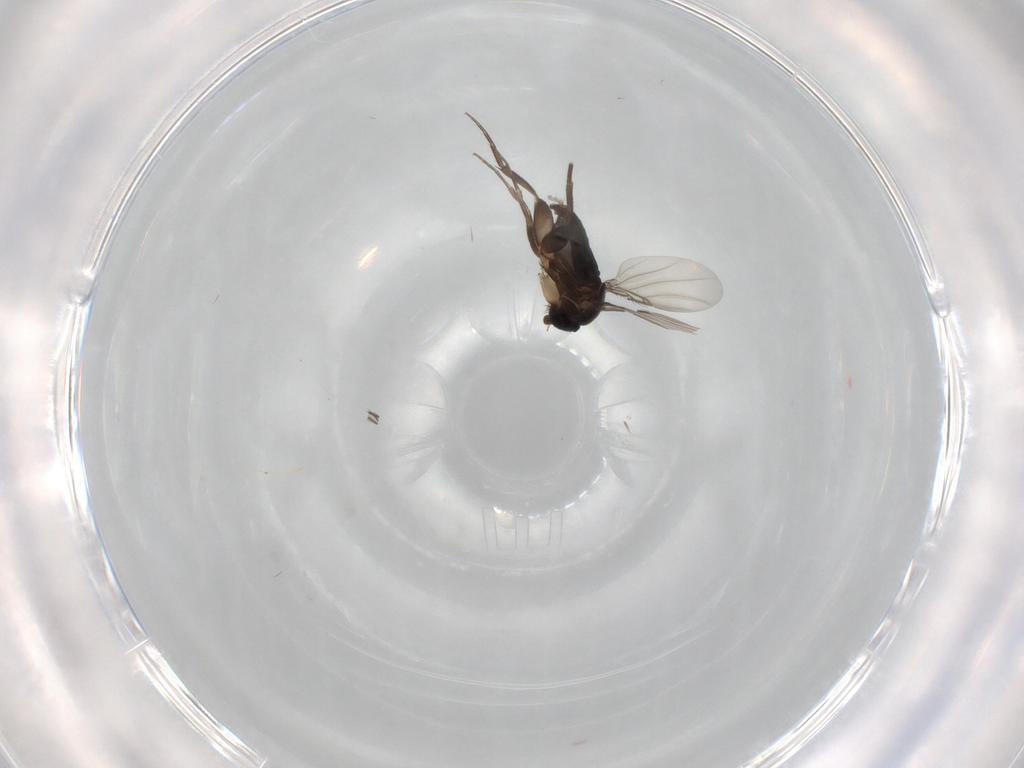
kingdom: Animalia
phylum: Arthropoda
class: Insecta
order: Diptera
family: Phoridae
